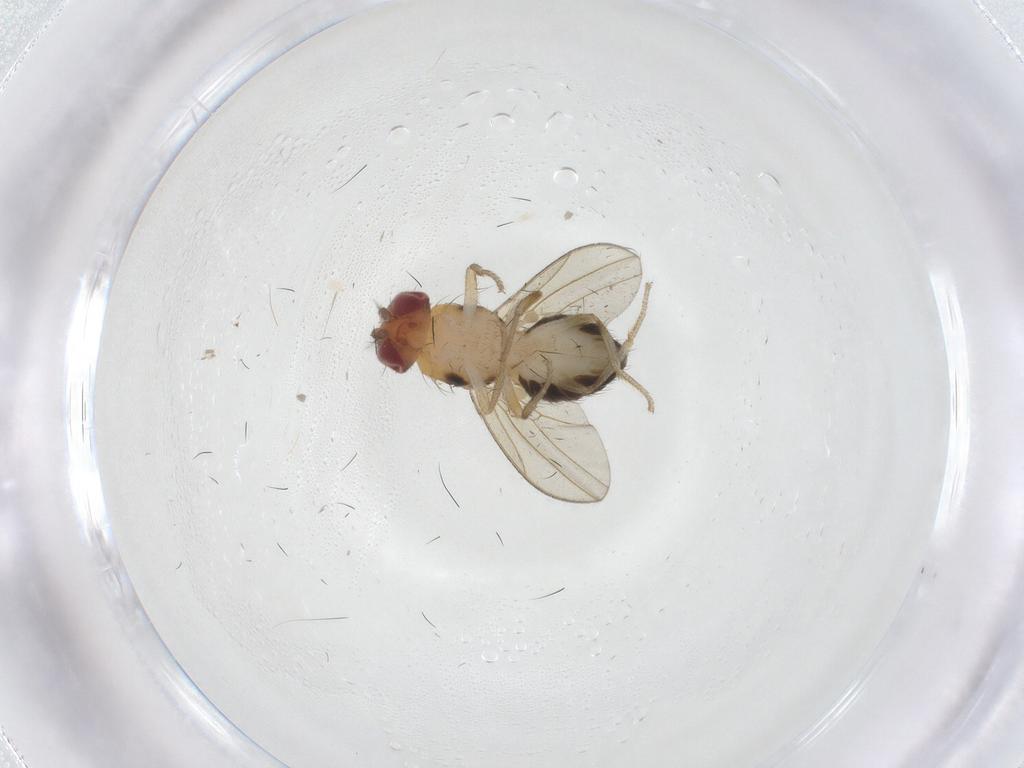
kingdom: Animalia
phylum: Arthropoda
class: Insecta
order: Diptera
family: Drosophilidae
